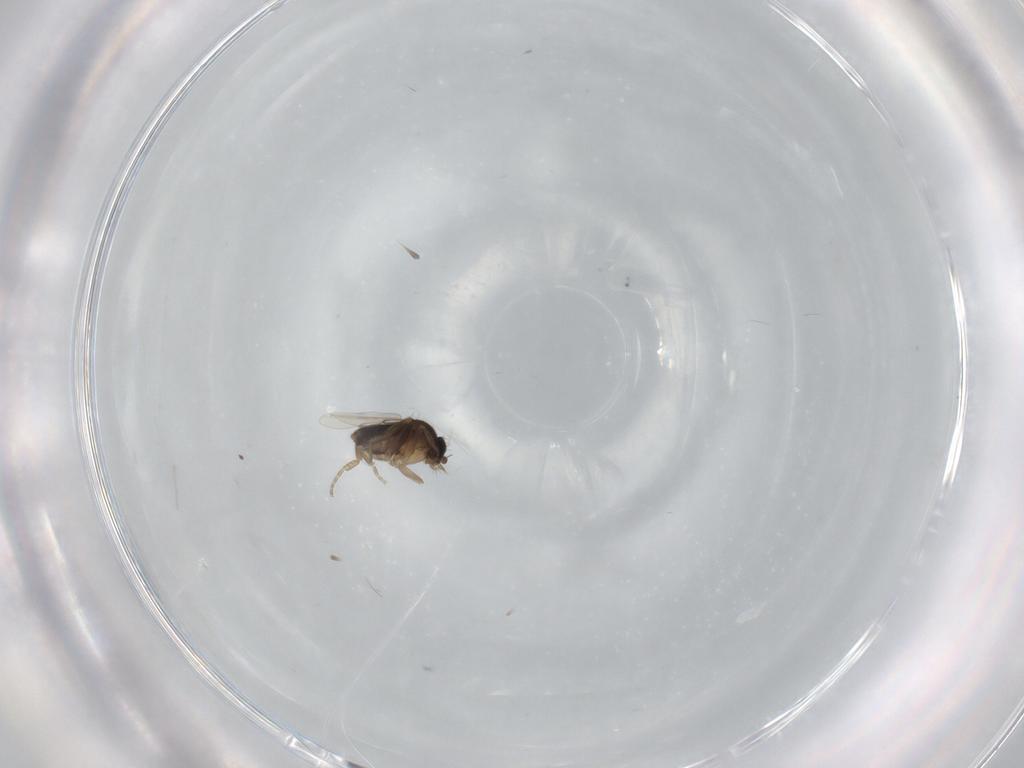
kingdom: Animalia
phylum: Arthropoda
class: Insecta
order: Diptera
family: Phoridae
